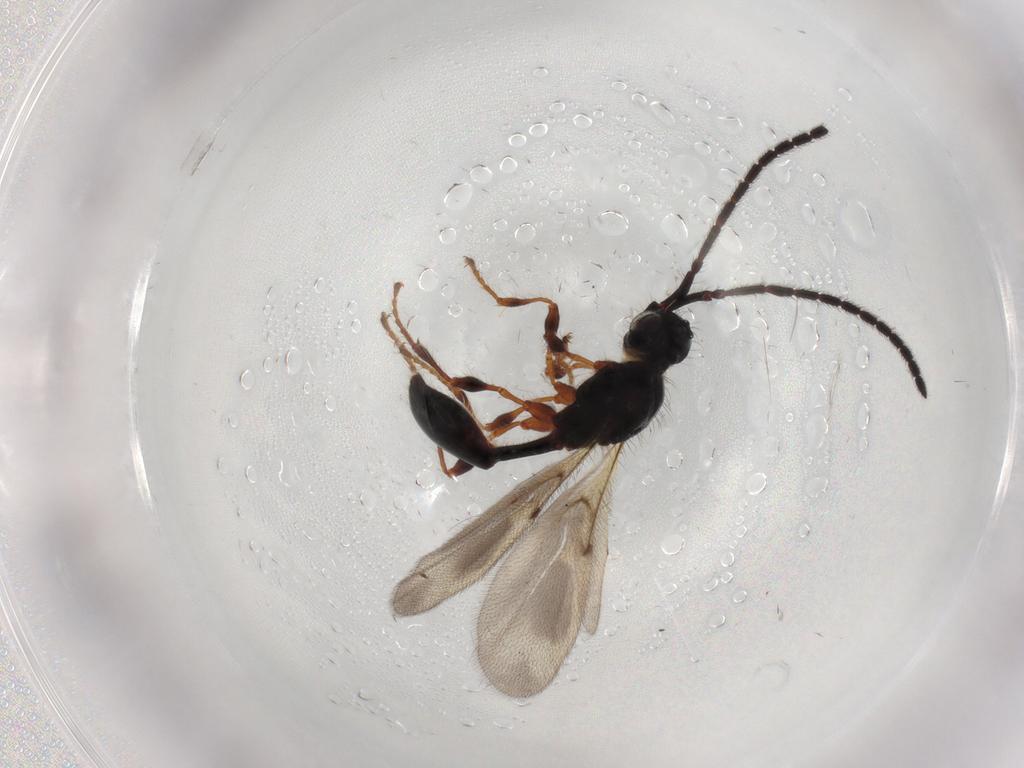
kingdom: Animalia
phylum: Arthropoda
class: Insecta
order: Hymenoptera
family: Diapriidae
